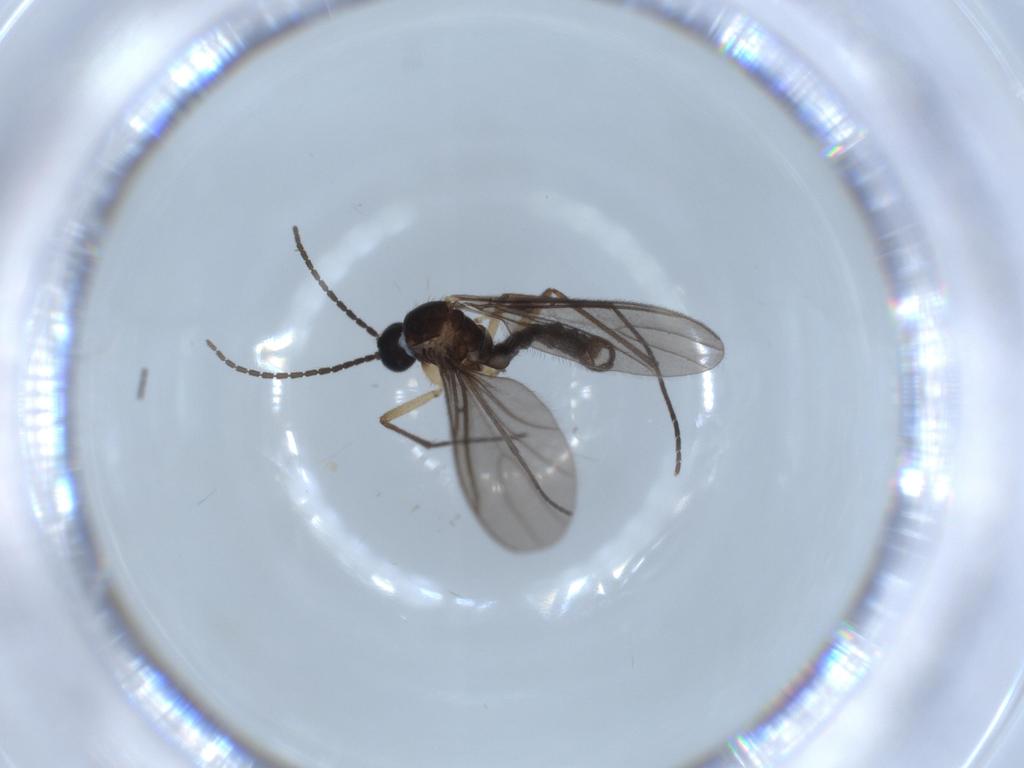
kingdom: Animalia
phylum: Arthropoda
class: Insecta
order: Diptera
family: Sciaridae
